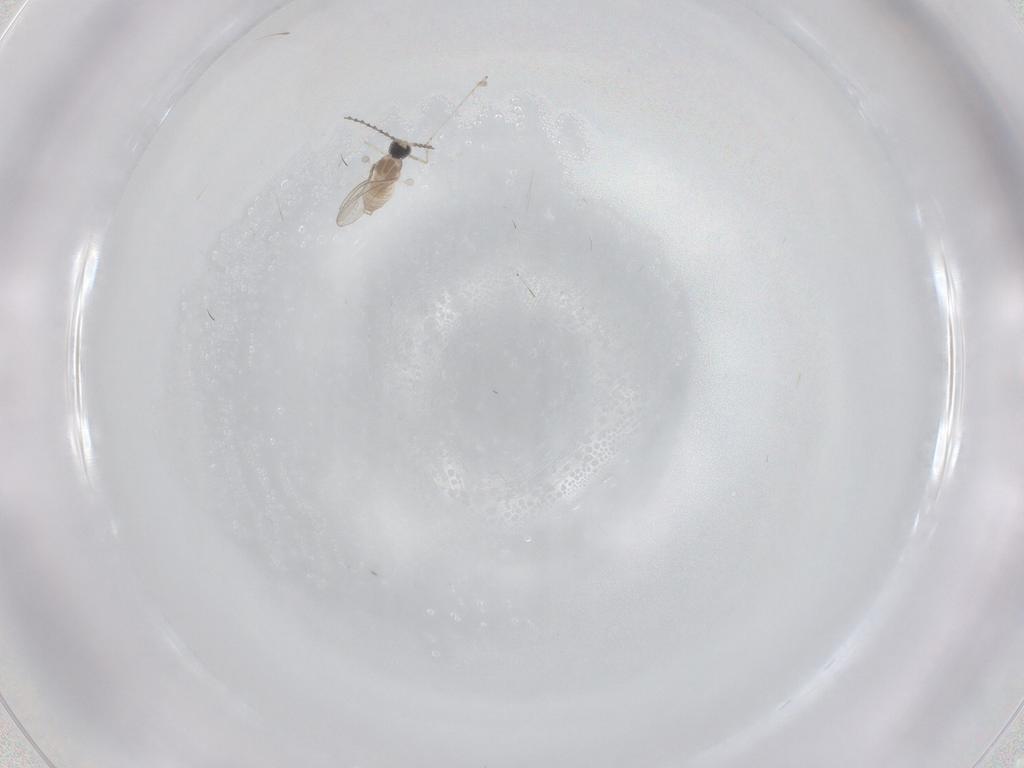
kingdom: Animalia
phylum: Arthropoda
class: Insecta
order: Diptera
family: Cecidomyiidae
